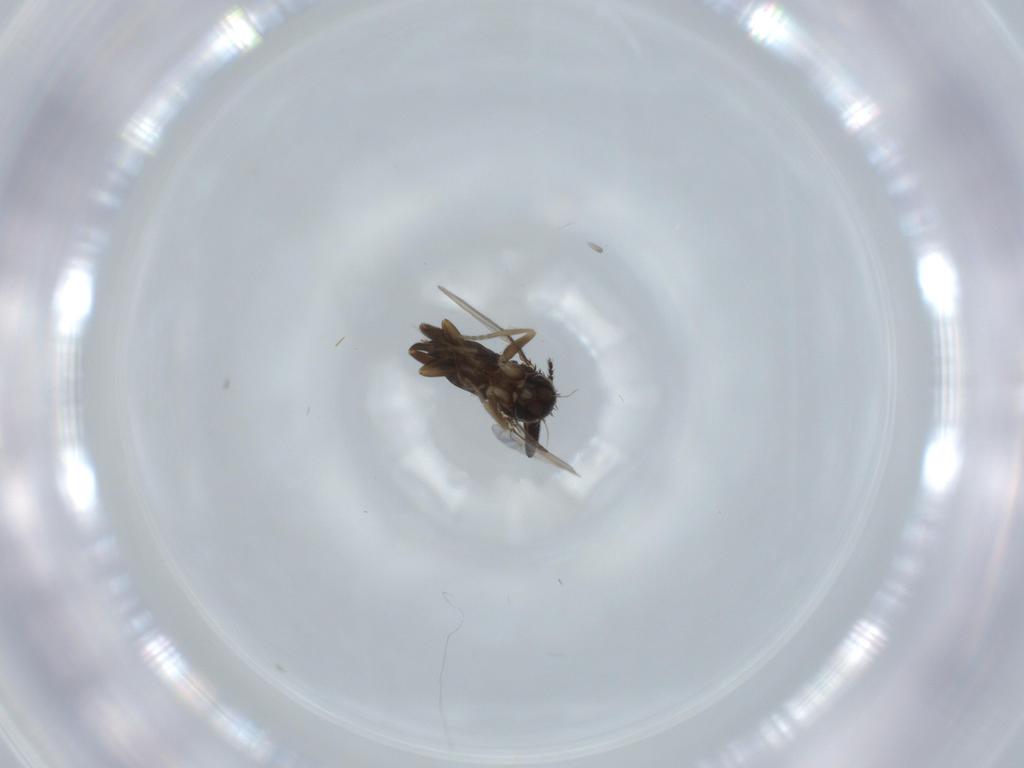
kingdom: Animalia
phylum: Arthropoda
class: Insecta
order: Diptera
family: Phoridae
